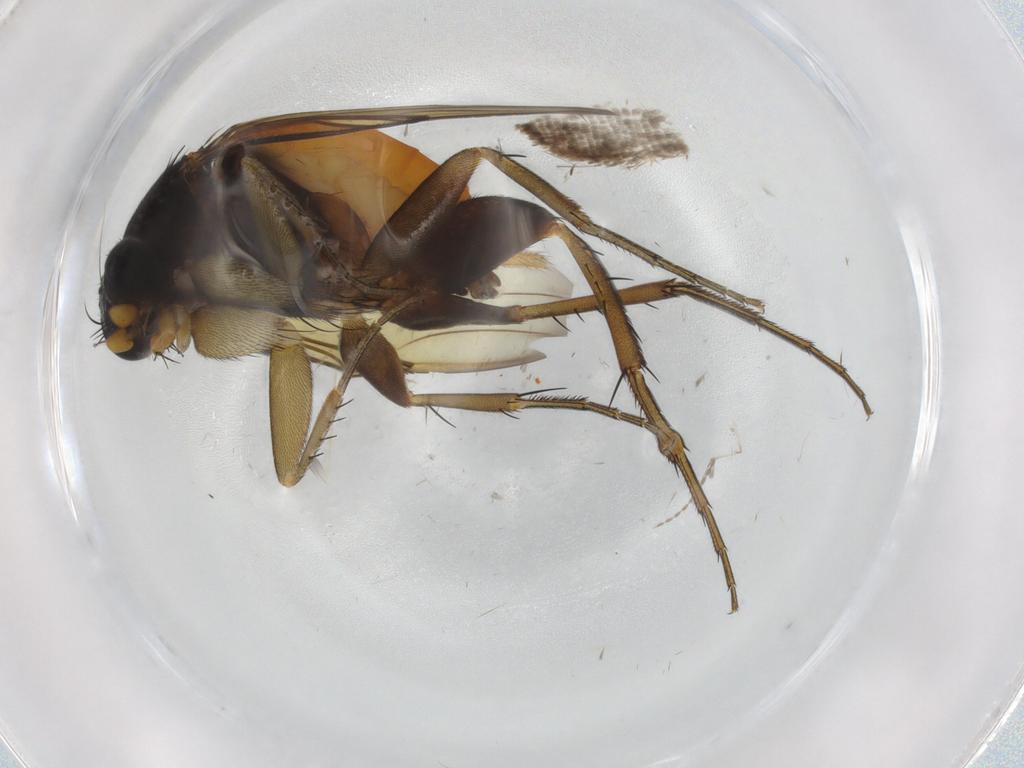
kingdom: Animalia
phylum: Arthropoda
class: Insecta
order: Diptera
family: Phoridae
